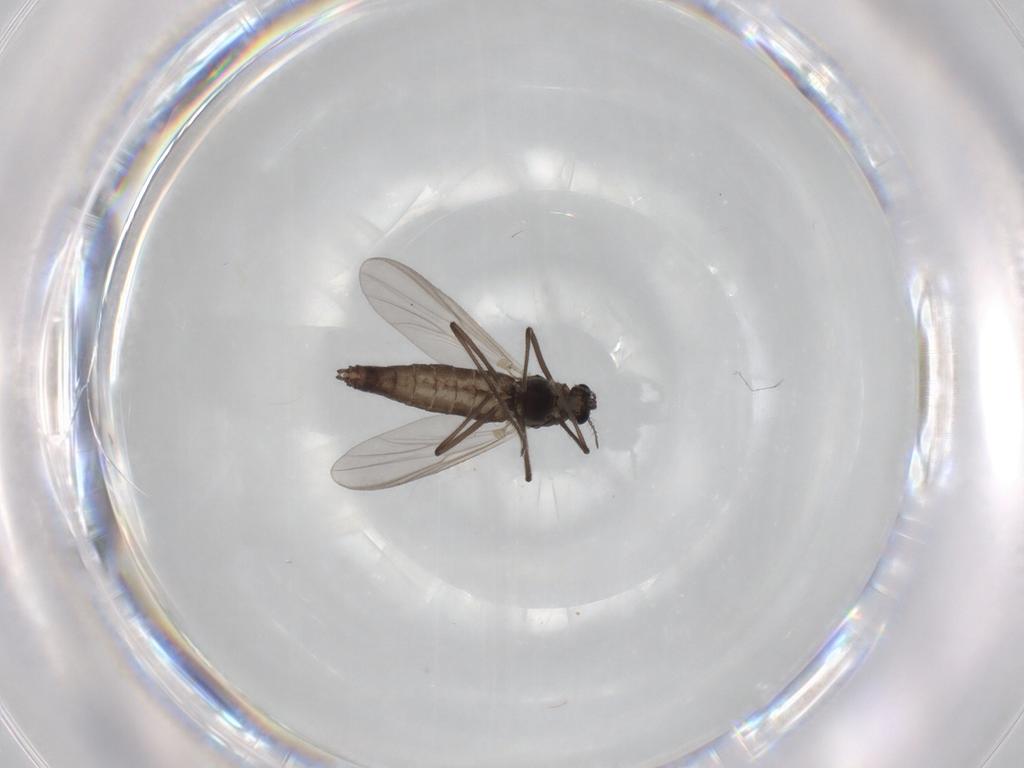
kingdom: Animalia
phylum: Arthropoda
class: Insecta
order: Diptera
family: Chironomidae
